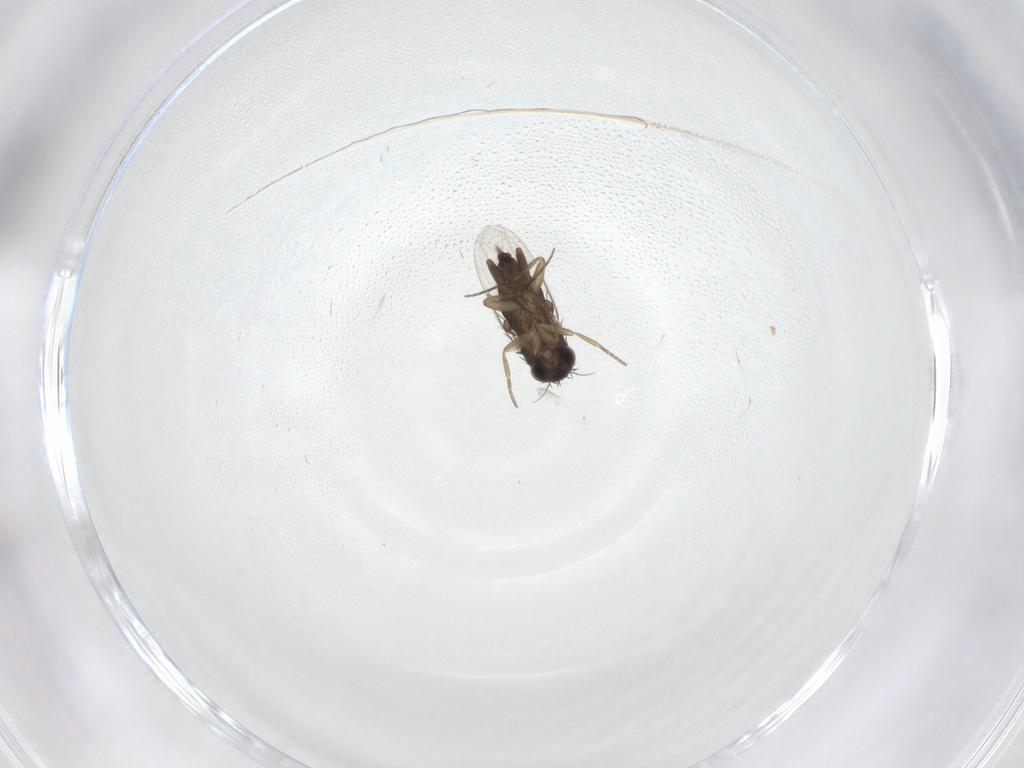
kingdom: Animalia
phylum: Arthropoda
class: Insecta
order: Diptera
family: Phoridae
